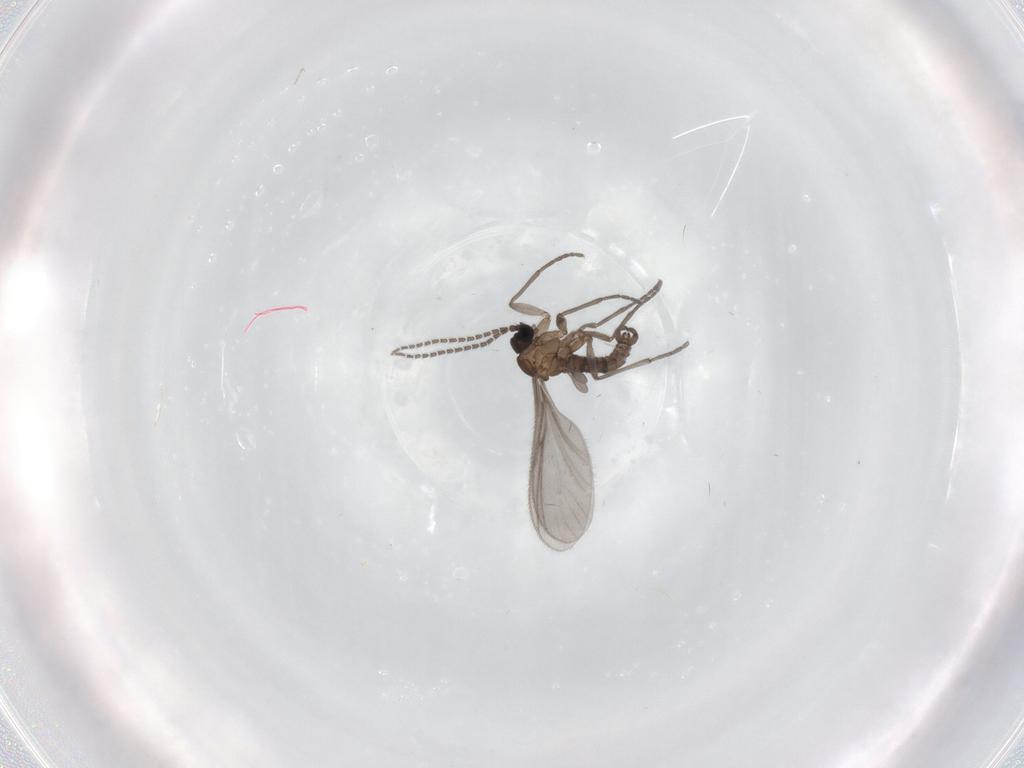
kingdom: Animalia
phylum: Arthropoda
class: Insecta
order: Diptera
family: Sciaridae
